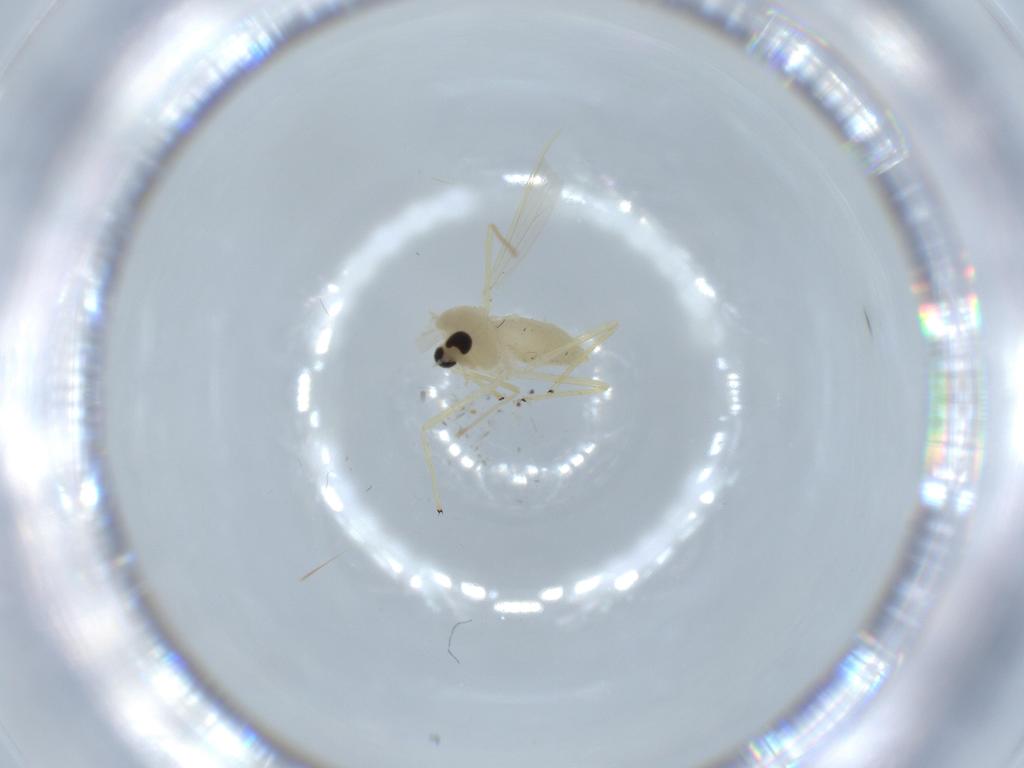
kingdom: Animalia
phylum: Arthropoda
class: Insecta
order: Diptera
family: Chironomidae
